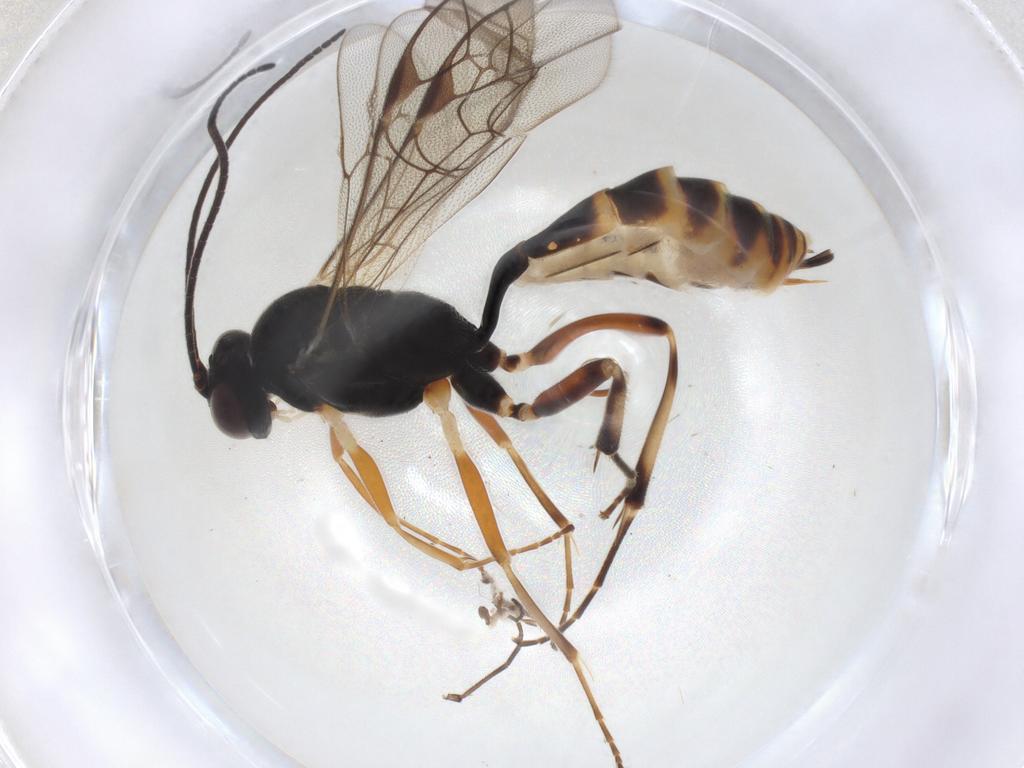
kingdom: Animalia
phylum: Arthropoda
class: Insecta
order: Hymenoptera
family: Ichneumonidae
